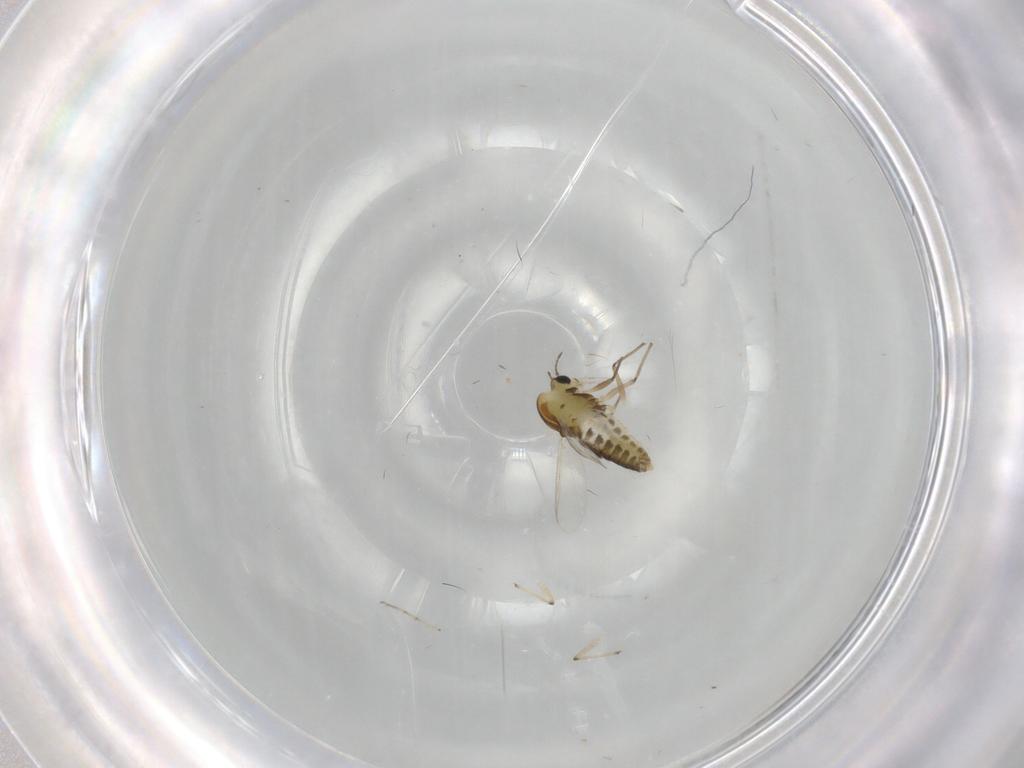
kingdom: Animalia
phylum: Arthropoda
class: Insecta
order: Diptera
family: Chironomidae
